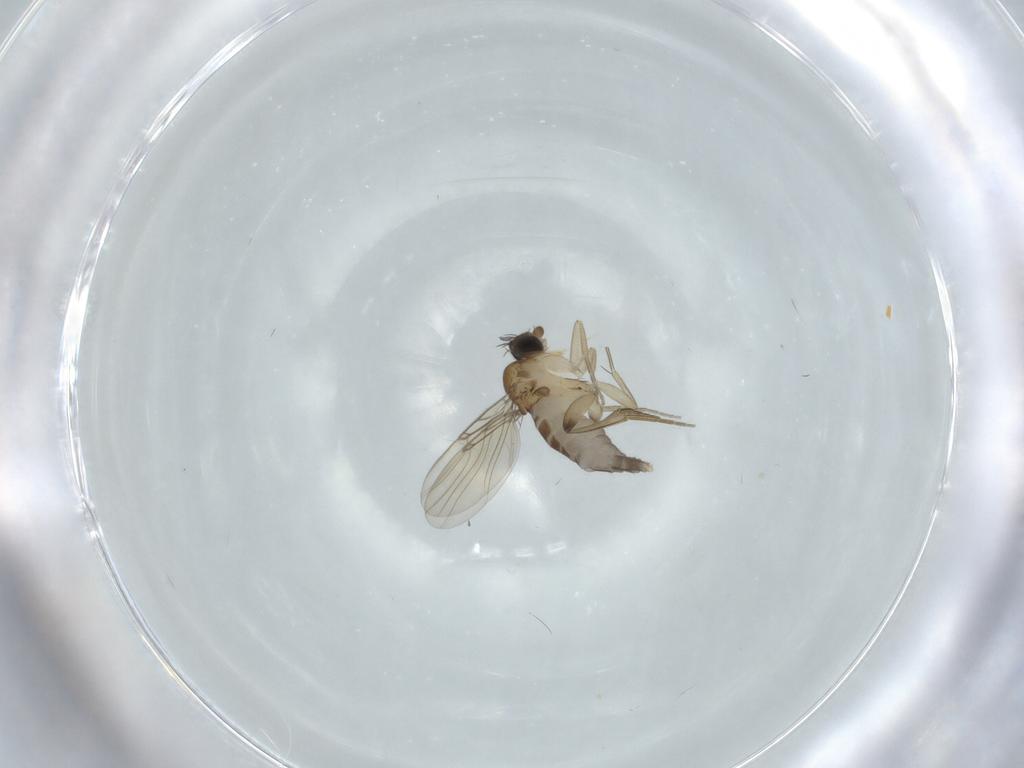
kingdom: Animalia
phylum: Arthropoda
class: Insecta
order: Diptera
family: Phoridae
